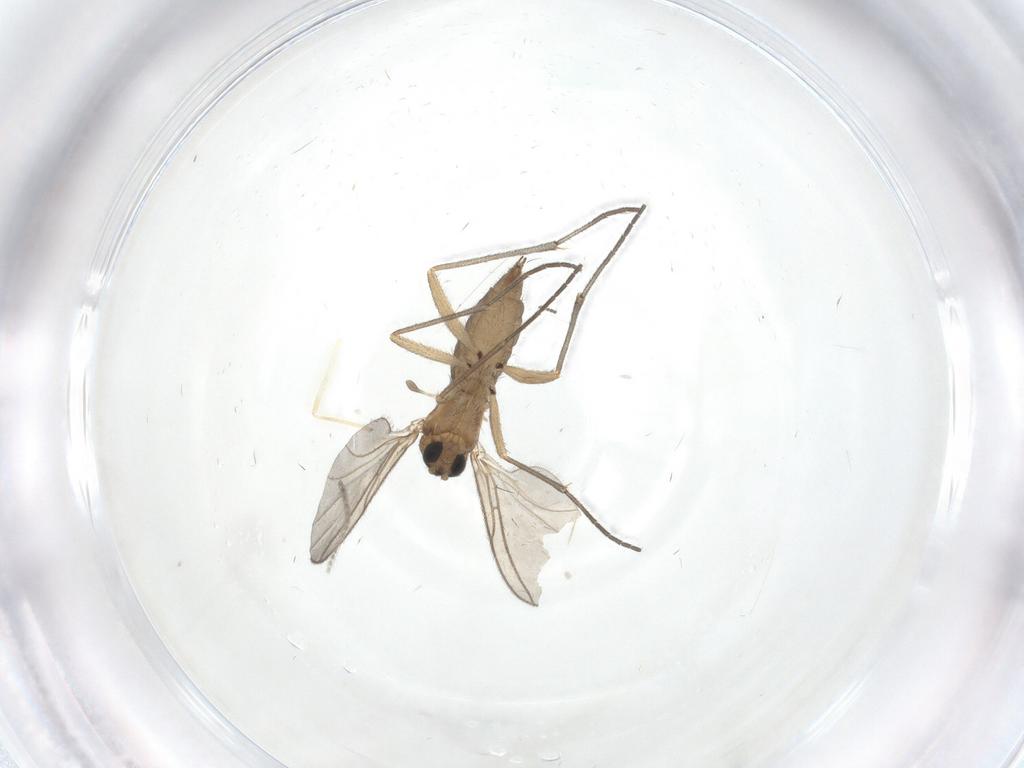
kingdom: Animalia
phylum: Arthropoda
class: Insecta
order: Diptera
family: Sciaridae
